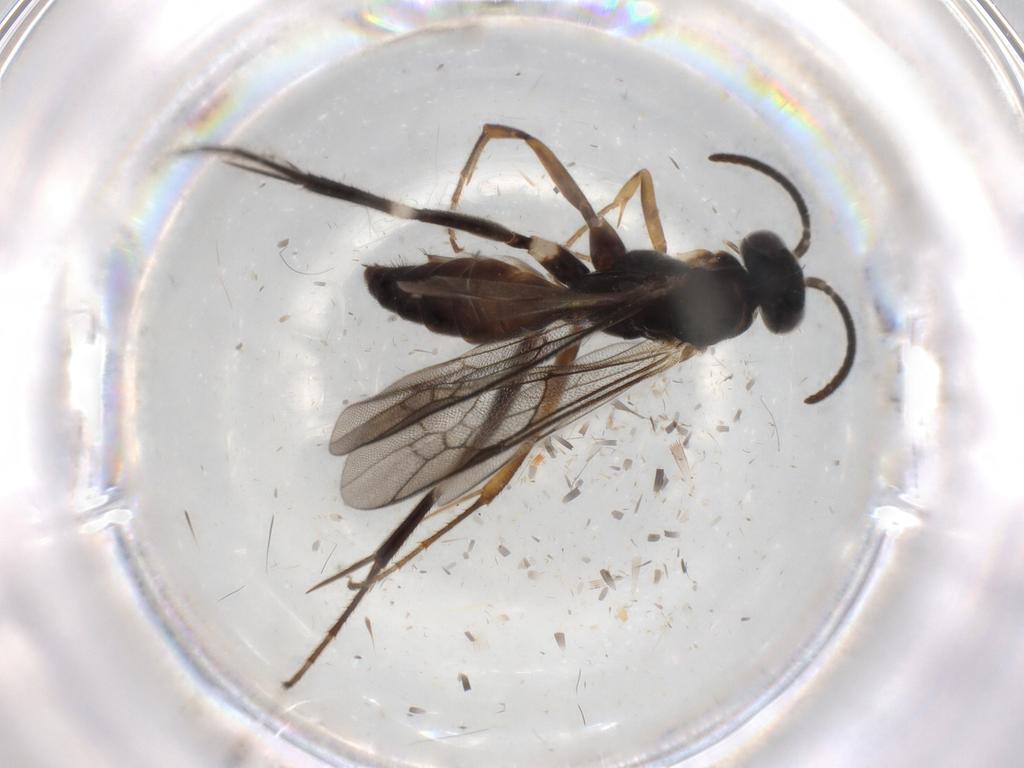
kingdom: Animalia
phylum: Arthropoda
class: Insecta
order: Hymenoptera
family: Pompilidae
